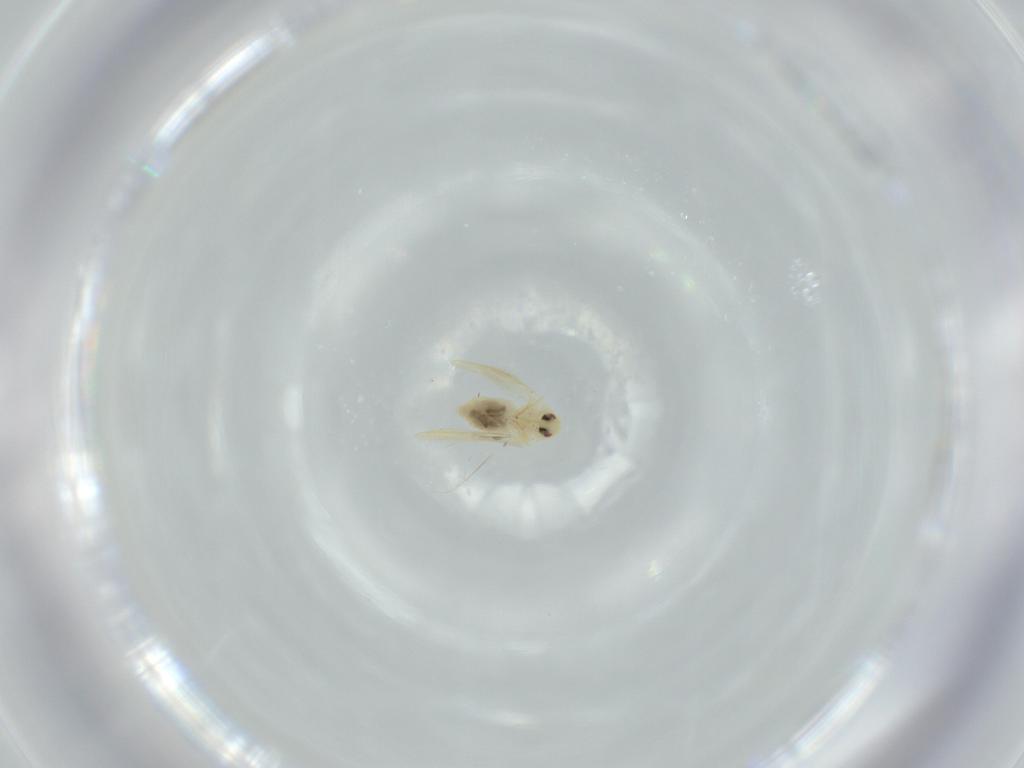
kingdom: Animalia
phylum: Arthropoda
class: Insecta
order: Hemiptera
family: Aleyrodidae
